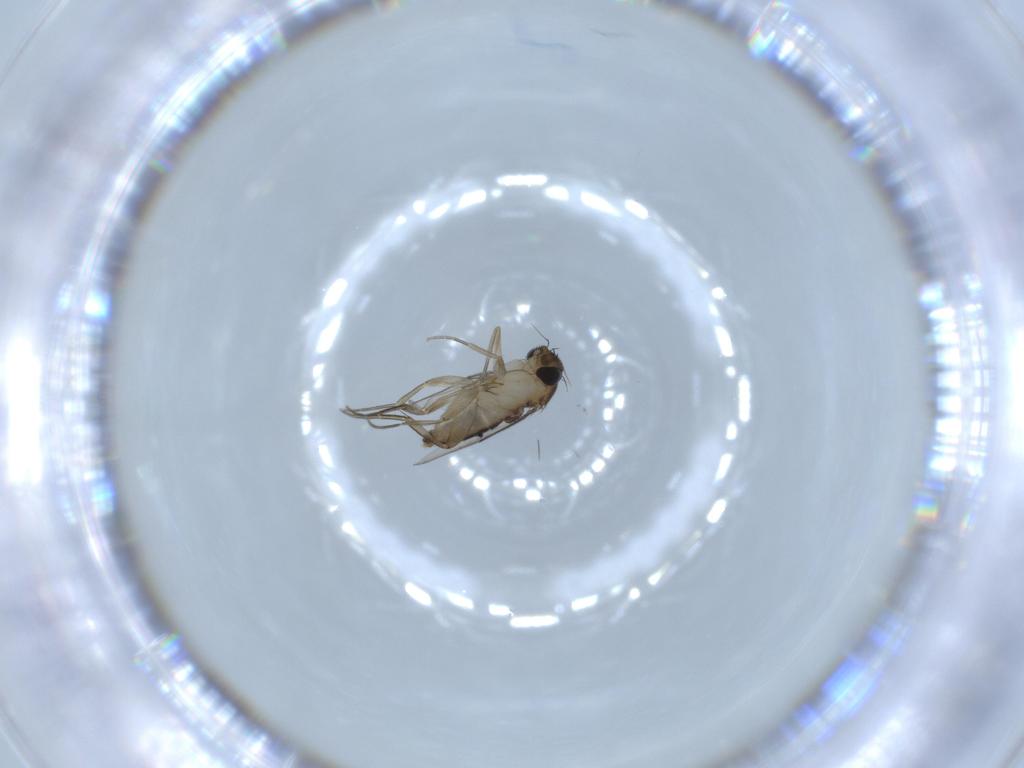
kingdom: Animalia
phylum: Arthropoda
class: Insecta
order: Diptera
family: Phoridae
